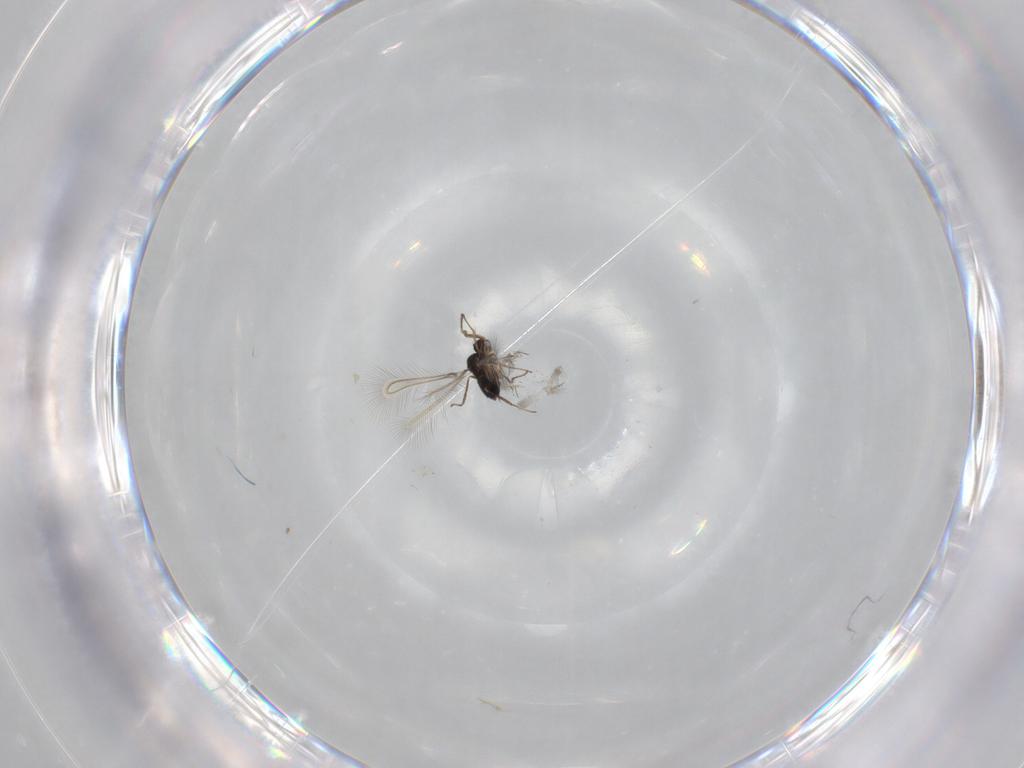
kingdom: Animalia
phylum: Arthropoda
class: Insecta
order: Hymenoptera
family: Mymaridae
